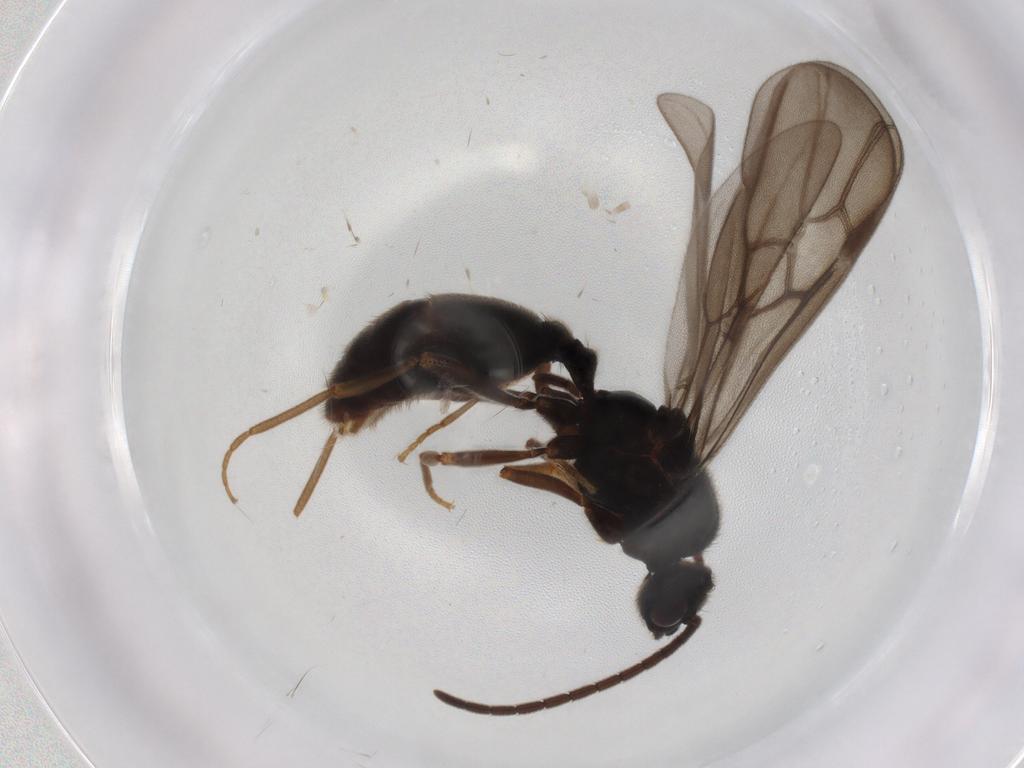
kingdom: Animalia
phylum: Arthropoda
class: Insecta
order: Hymenoptera
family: Formicidae
